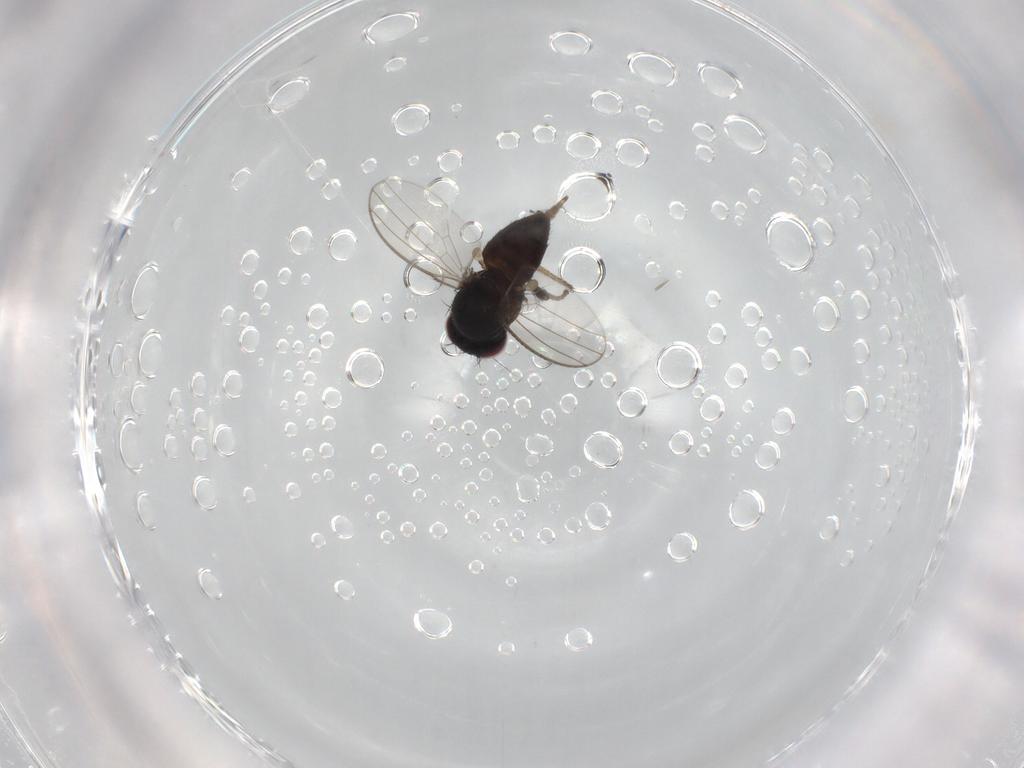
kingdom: Animalia
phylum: Arthropoda
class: Insecta
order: Diptera
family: Milichiidae
